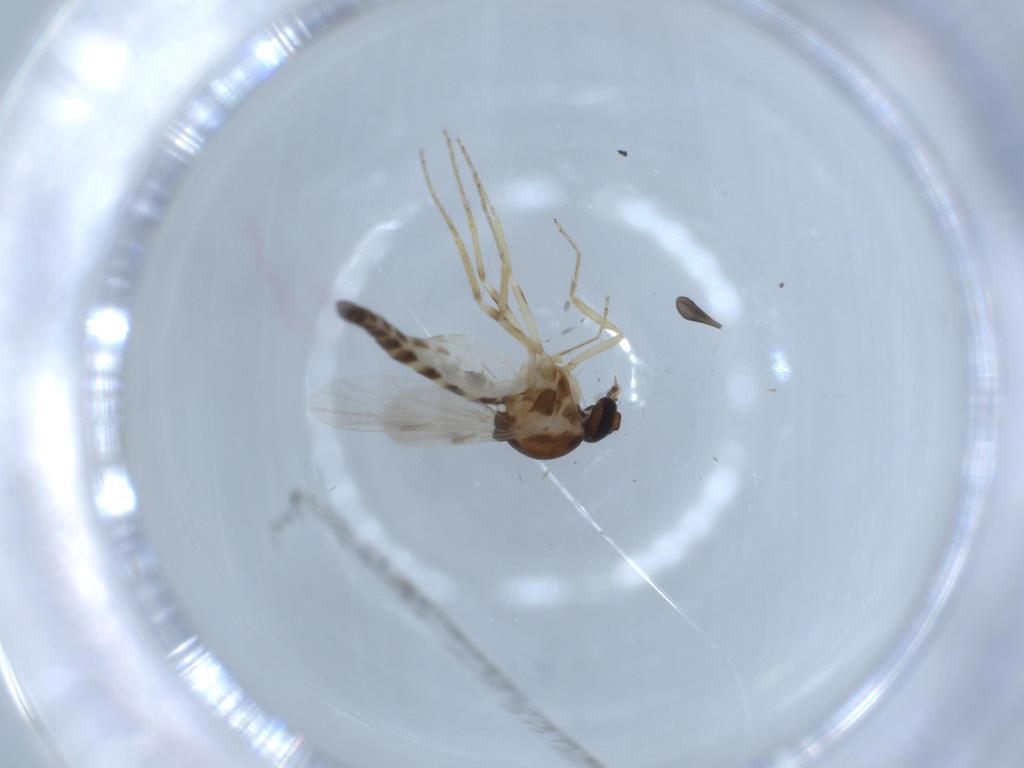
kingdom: Animalia
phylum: Arthropoda
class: Insecta
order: Diptera
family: Ceratopogonidae
